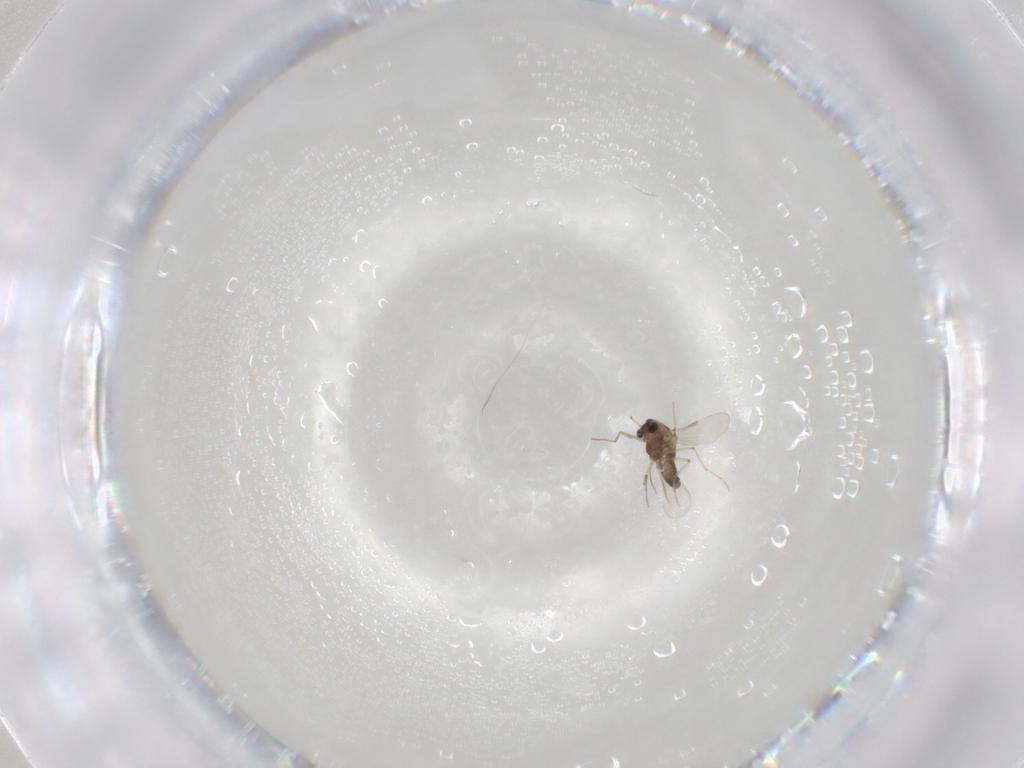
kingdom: Animalia
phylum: Arthropoda
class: Insecta
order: Diptera
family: Chironomidae
